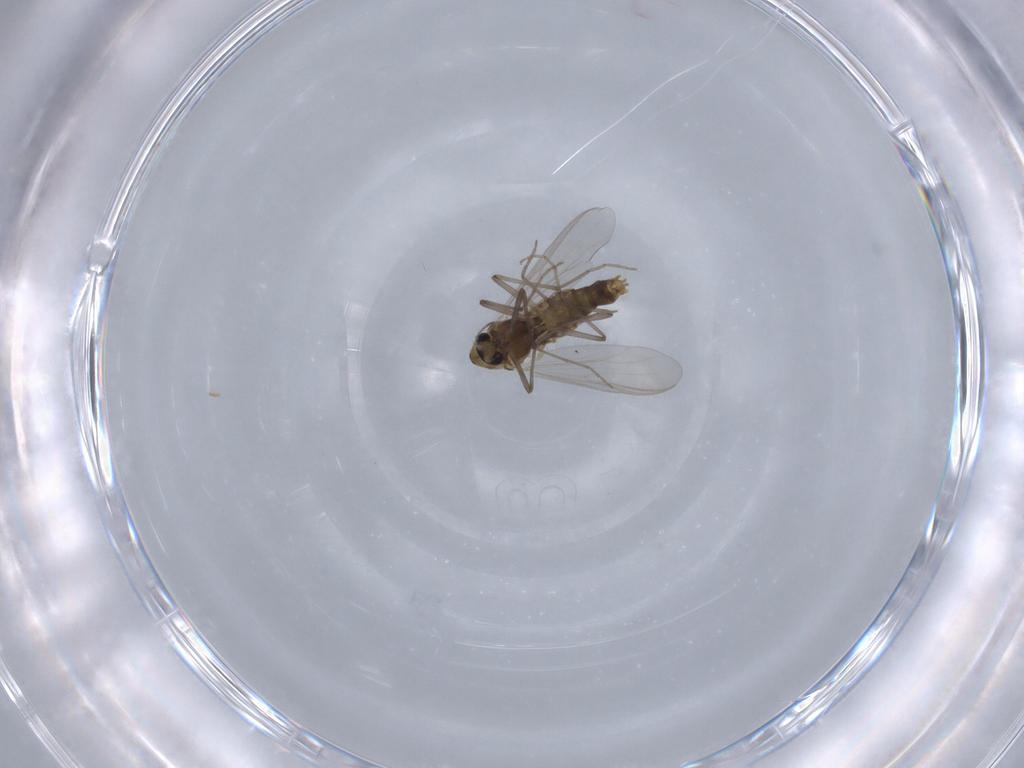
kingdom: Animalia
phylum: Arthropoda
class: Insecta
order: Diptera
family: Chironomidae
